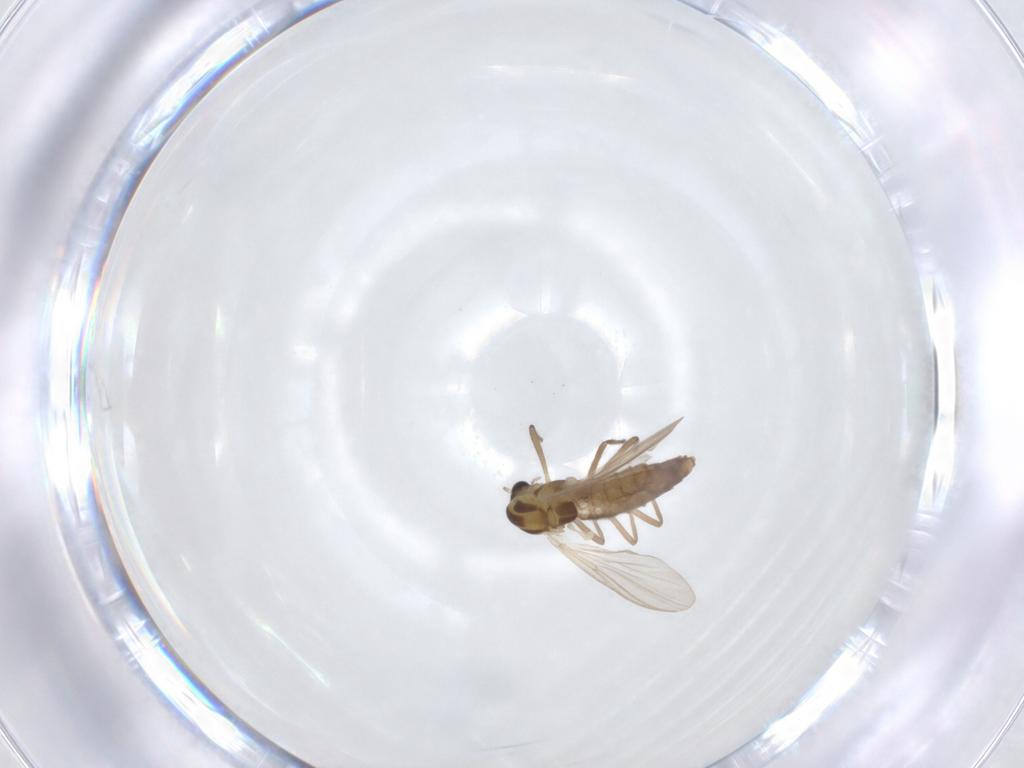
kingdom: Animalia
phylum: Arthropoda
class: Insecta
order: Diptera
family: Chironomidae
